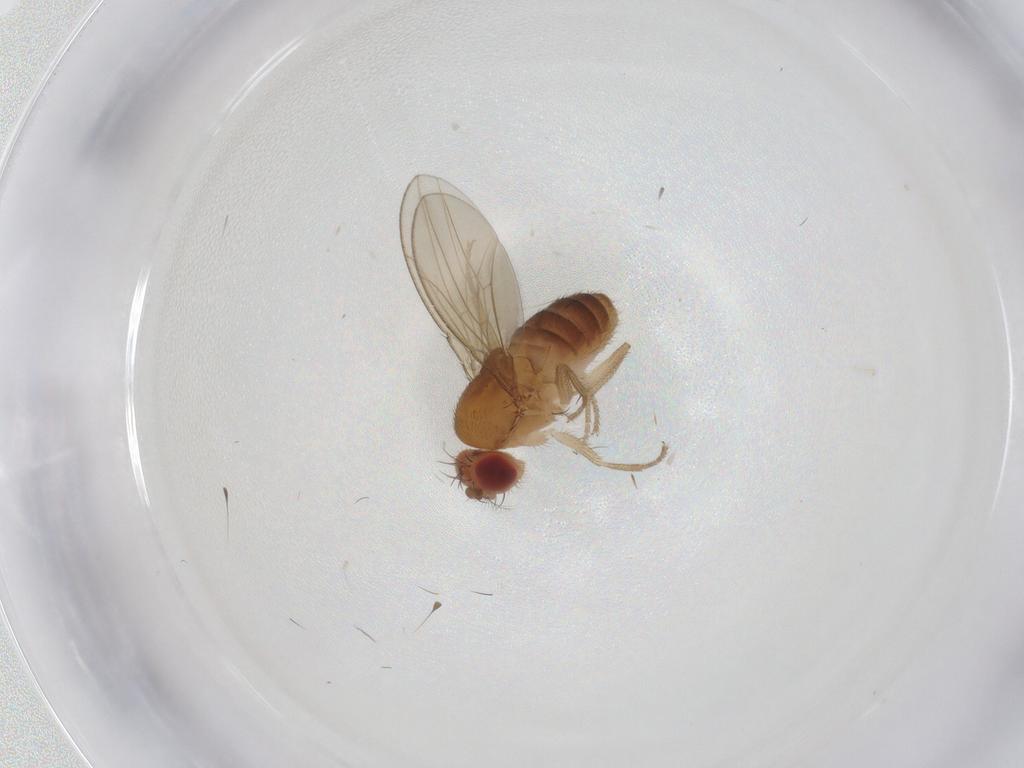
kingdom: Animalia
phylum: Arthropoda
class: Insecta
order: Diptera
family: Drosophilidae
